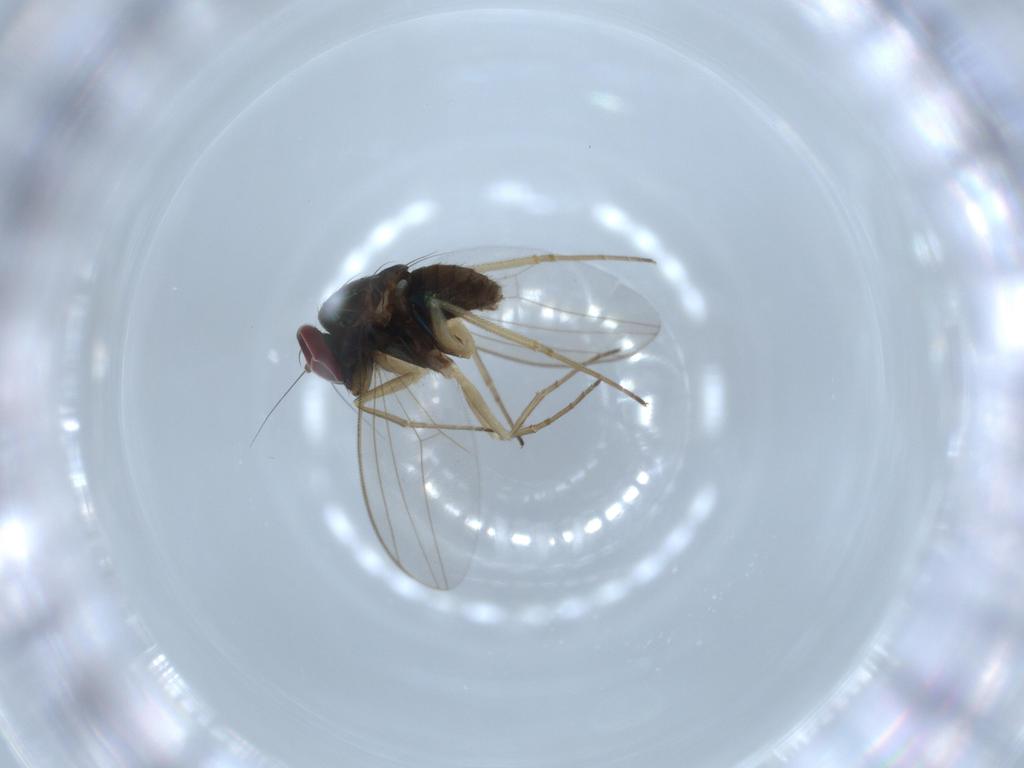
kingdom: Animalia
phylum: Arthropoda
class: Insecta
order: Diptera
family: Dolichopodidae
